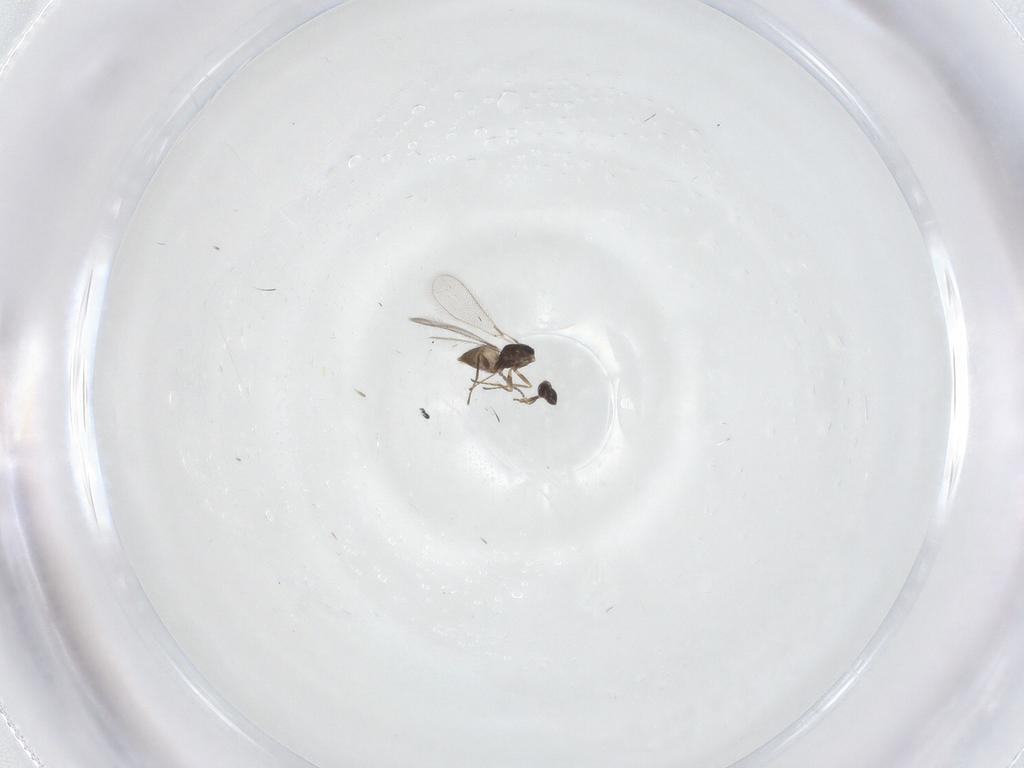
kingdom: Animalia
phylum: Arthropoda
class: Insecta
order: Hymenoptera
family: Mymaridae
